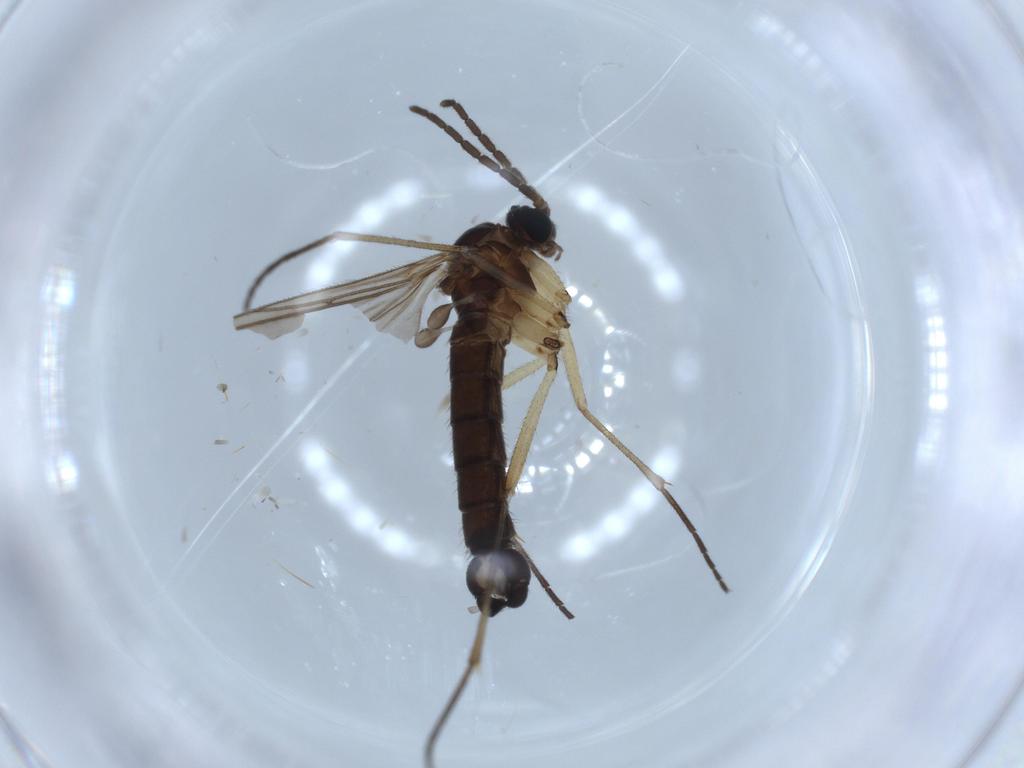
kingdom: Animalia
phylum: Arthropoda
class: Insecta
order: Diptera
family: Sciaridae
